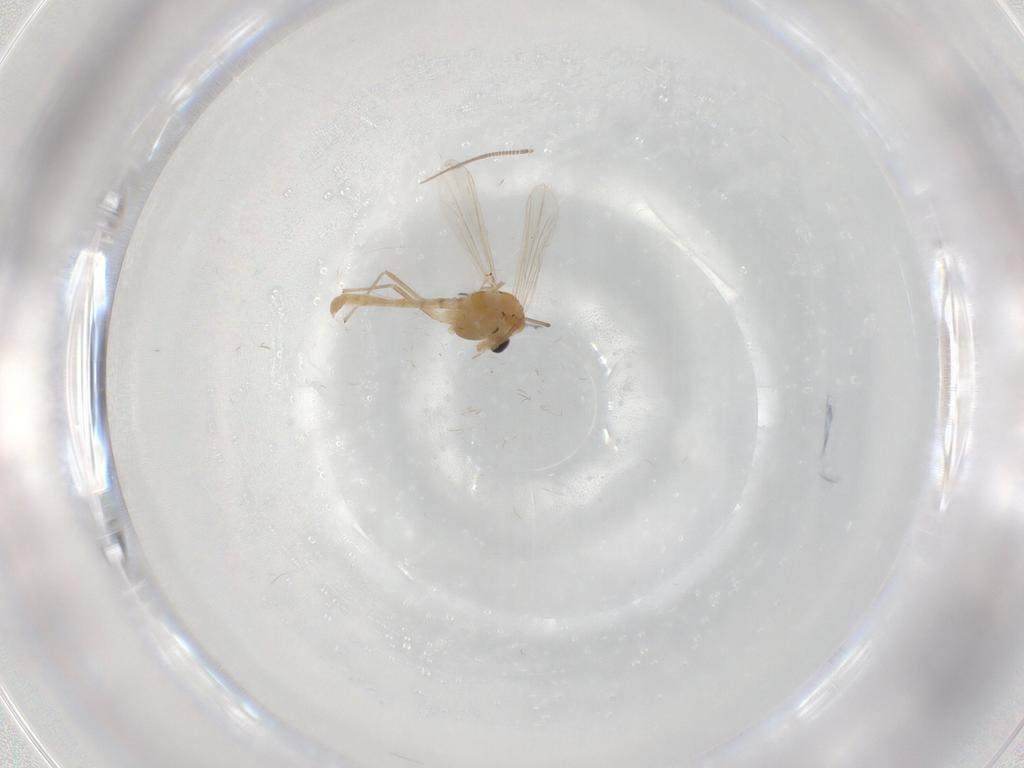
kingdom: Animalia
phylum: Arthropoda
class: Insecta
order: Diptera
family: Chironomidae
